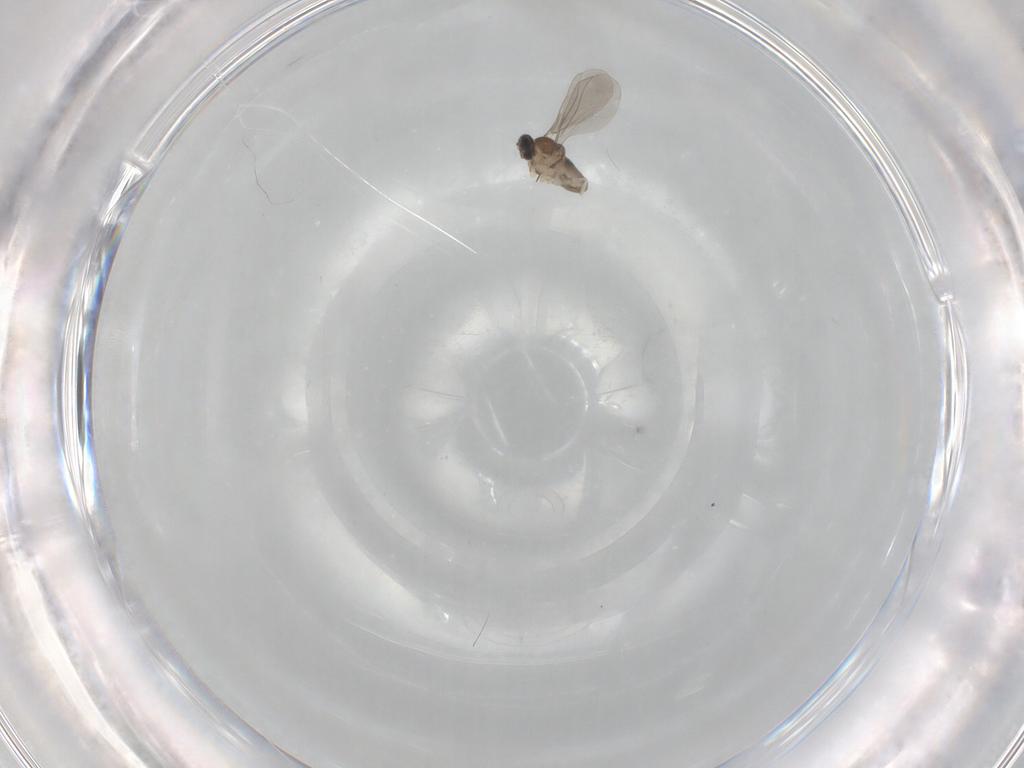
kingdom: Animalia
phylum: Arthropoda
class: Insecta
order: Diptera
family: Cecidomyiidae
